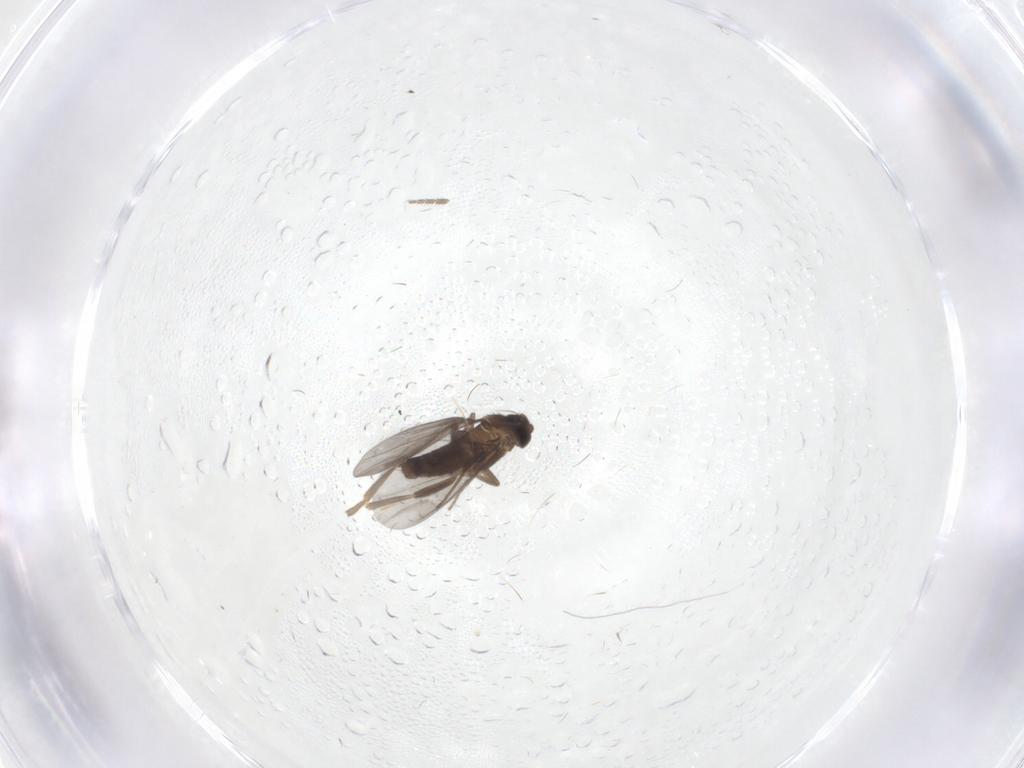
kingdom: Animalia
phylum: Arthropoda
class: Insecta
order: Diptera
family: Phoridae
